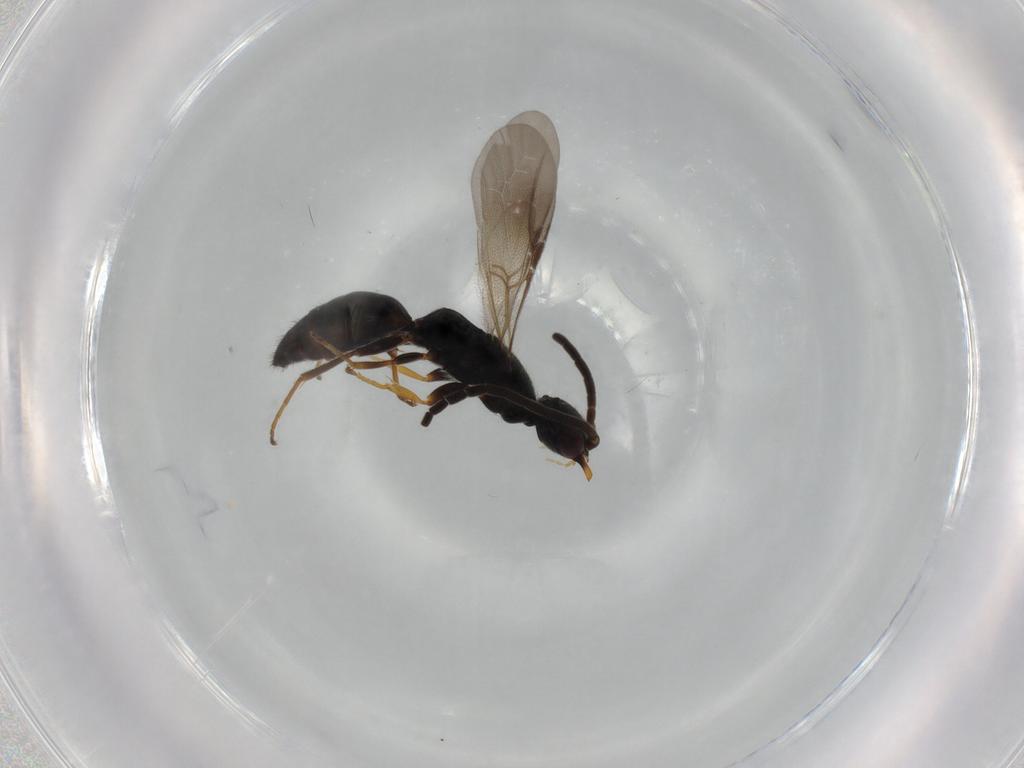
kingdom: Animalia
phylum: Arthropoda
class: Insecta
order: Hymenoptera
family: Bethylidae
